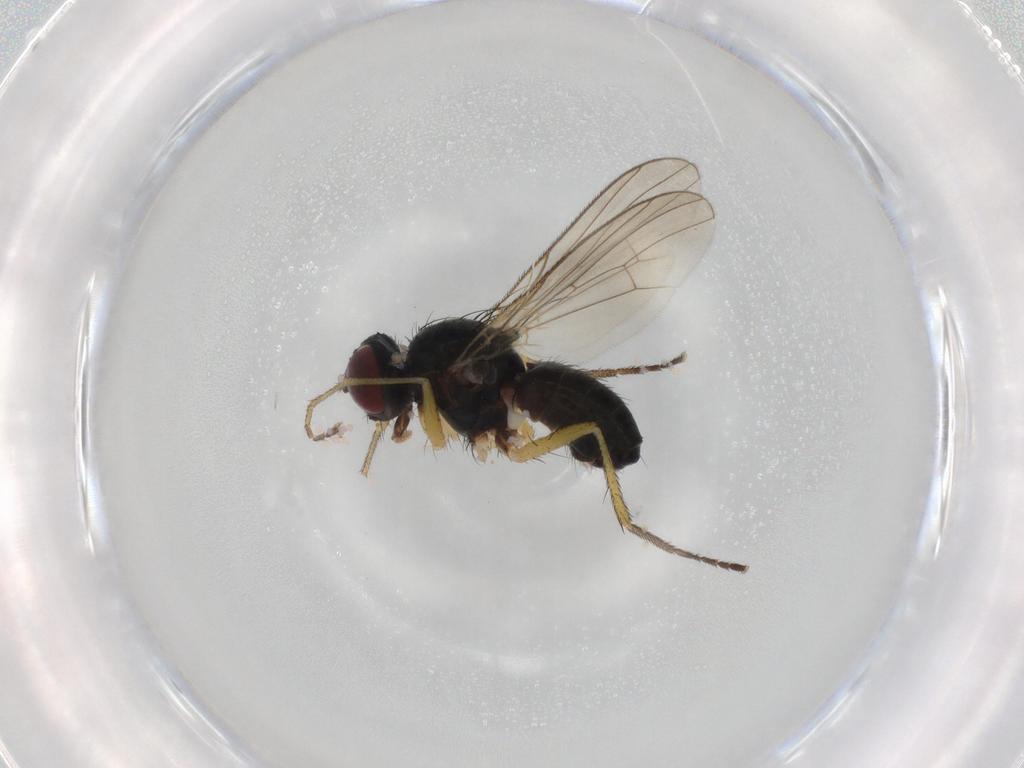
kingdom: Animalia
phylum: Arthropoda
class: Insecta
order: Diptera
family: Muscidae
